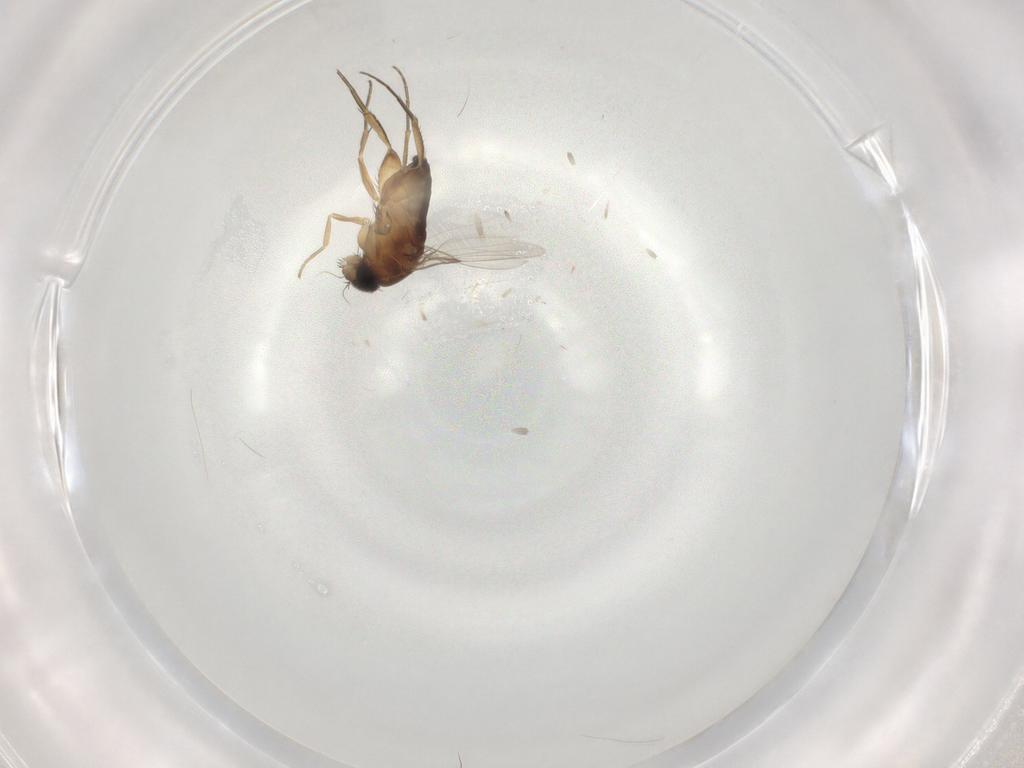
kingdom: Animalia
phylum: Arthropoda
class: Insecta
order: Diptera
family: Phoridae
